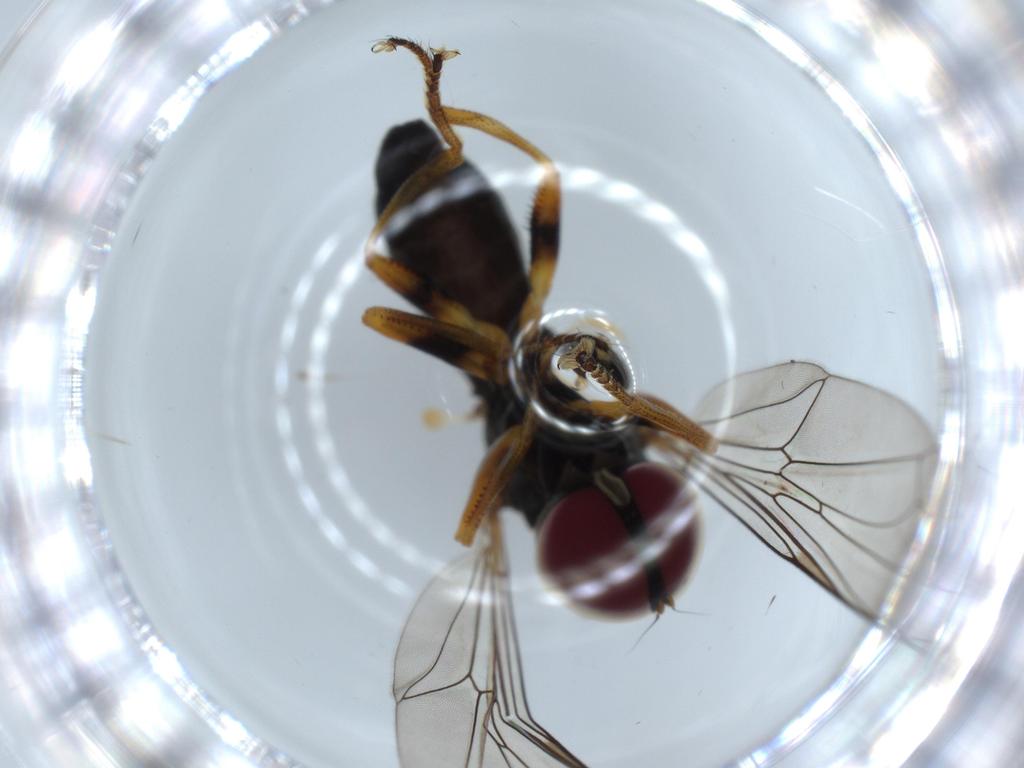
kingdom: Animalia
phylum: Arthropoda
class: Insecta
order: Diptera
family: Pipunculidae
